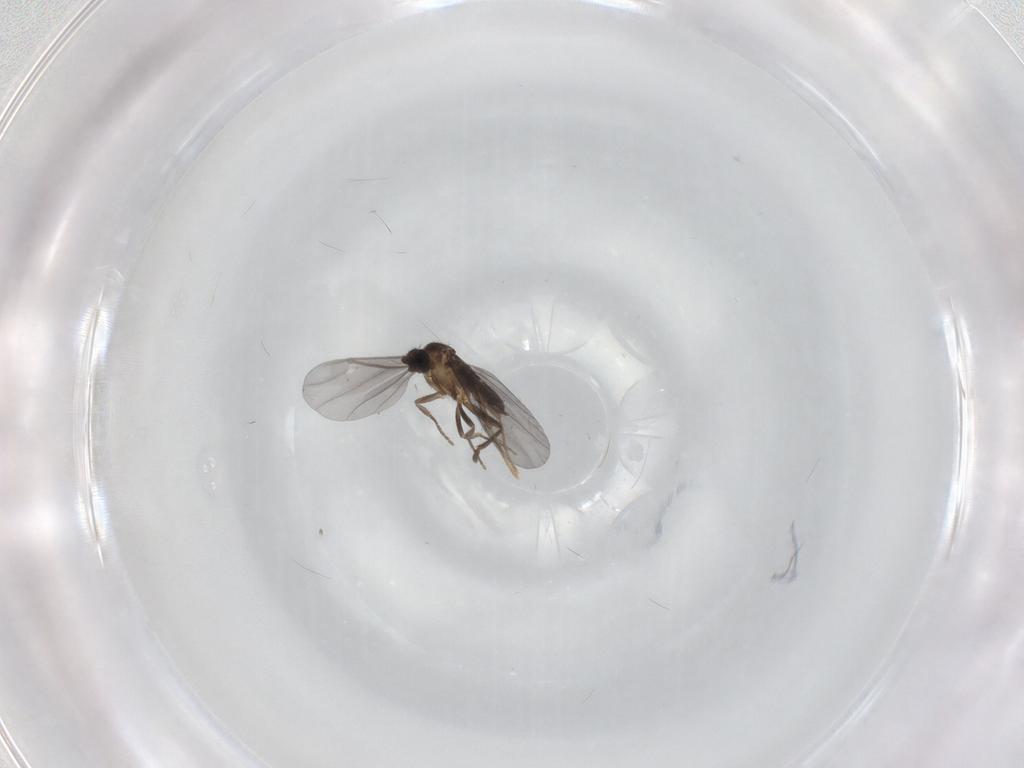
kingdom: Animalia
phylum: Arthropoda
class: Insecta
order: Diptera
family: Phoridae
